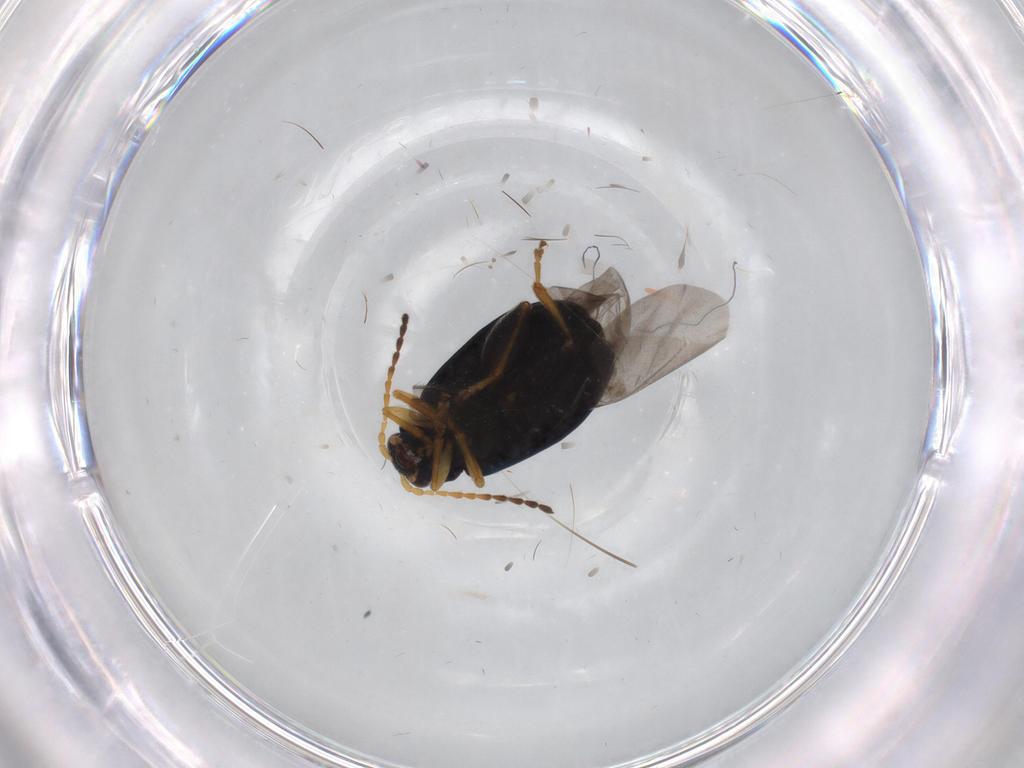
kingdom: Animalia
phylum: Arthropoda
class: Insecta
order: Coleoptera
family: Chrysomelidae
